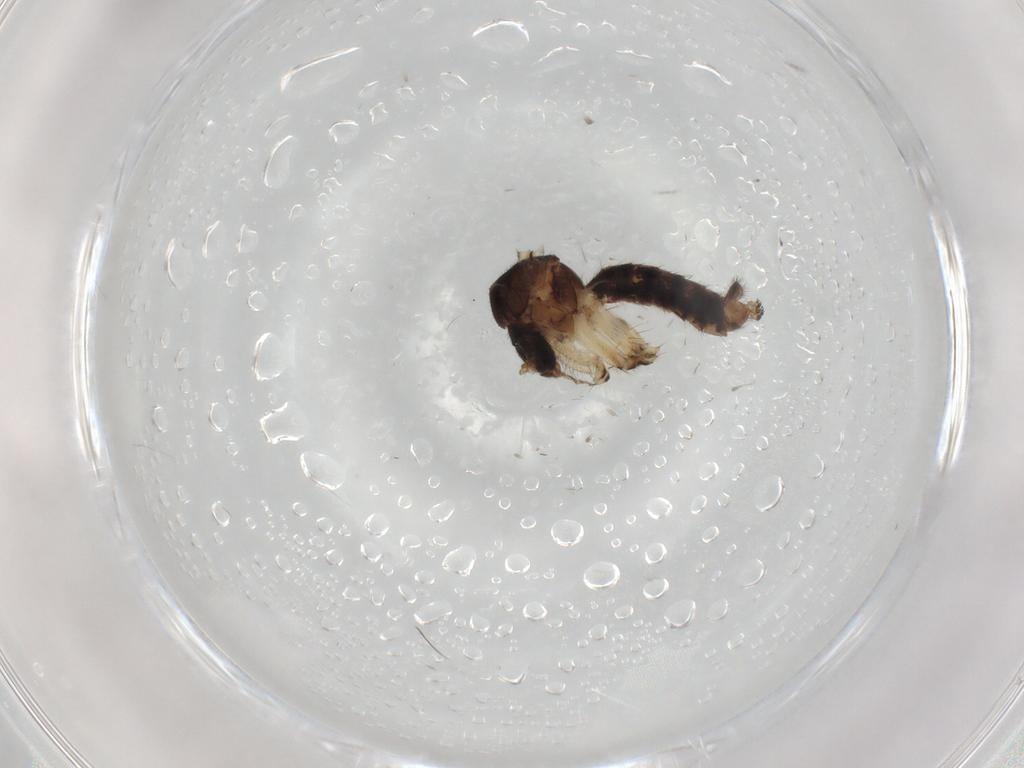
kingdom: Animalia
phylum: Arthropoda
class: Insecta
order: Diptera
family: Mycetophilidae
